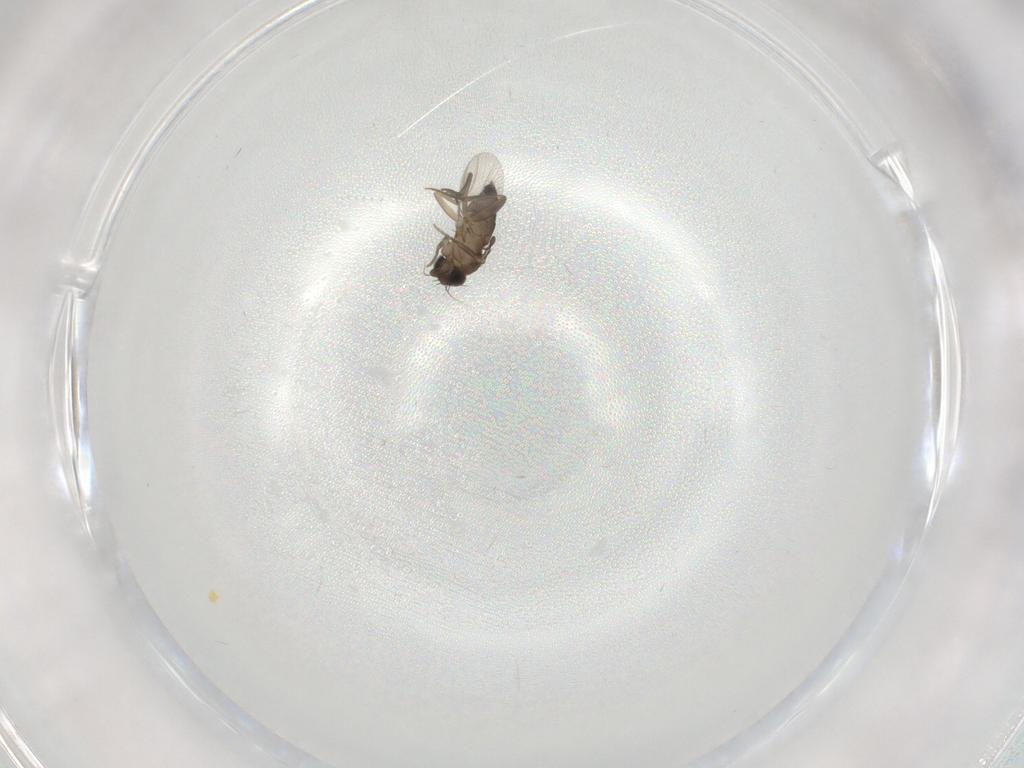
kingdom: Animalia
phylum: Arthropoda
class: Insecta
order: Diptera
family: Phoridae
